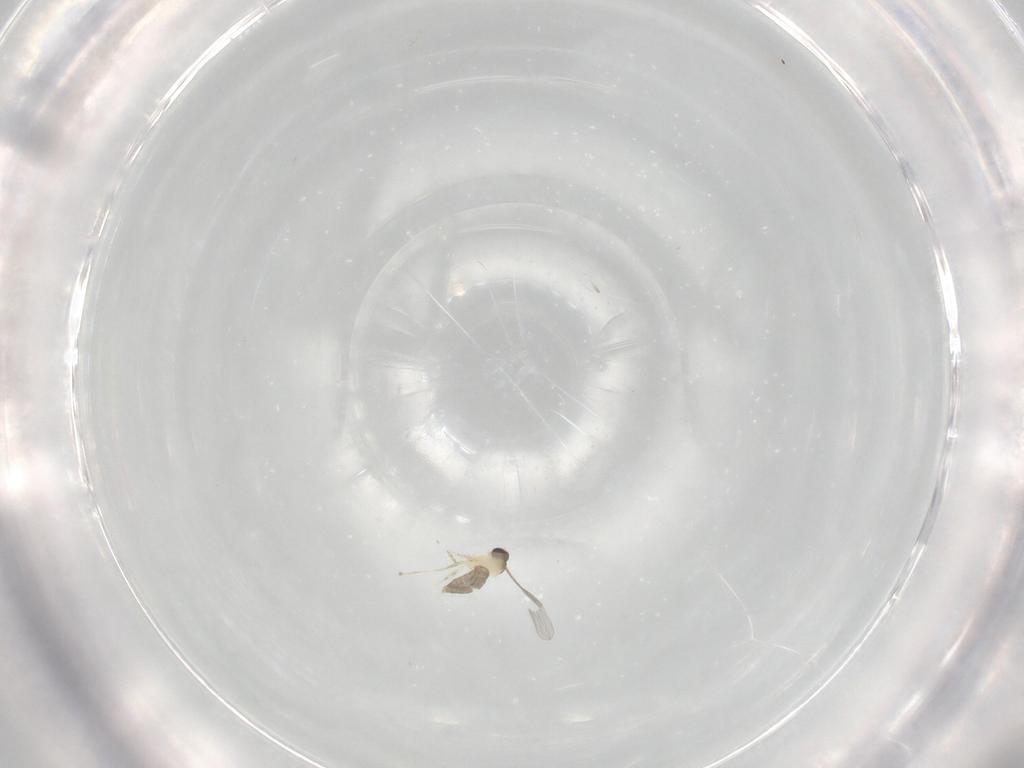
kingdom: Animalia
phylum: Arthropoda
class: Insecta
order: Diptera
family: Cecidomyiidae
